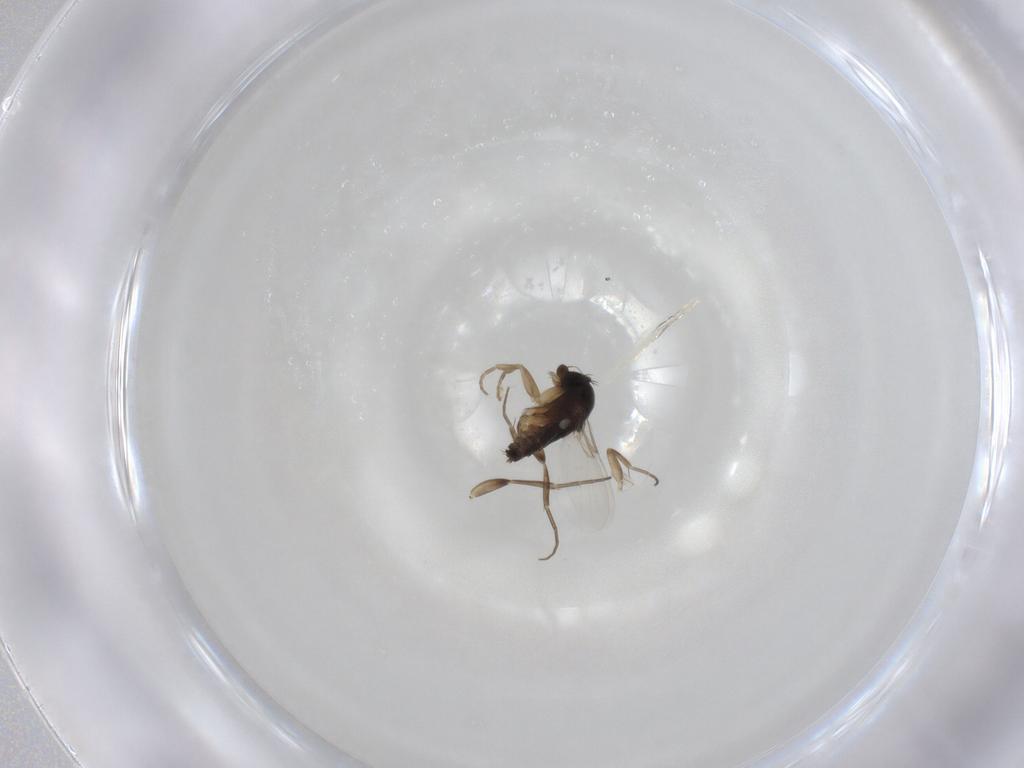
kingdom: Animalia
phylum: Arthropoda
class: Insecta
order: Diptera
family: Phoridae
